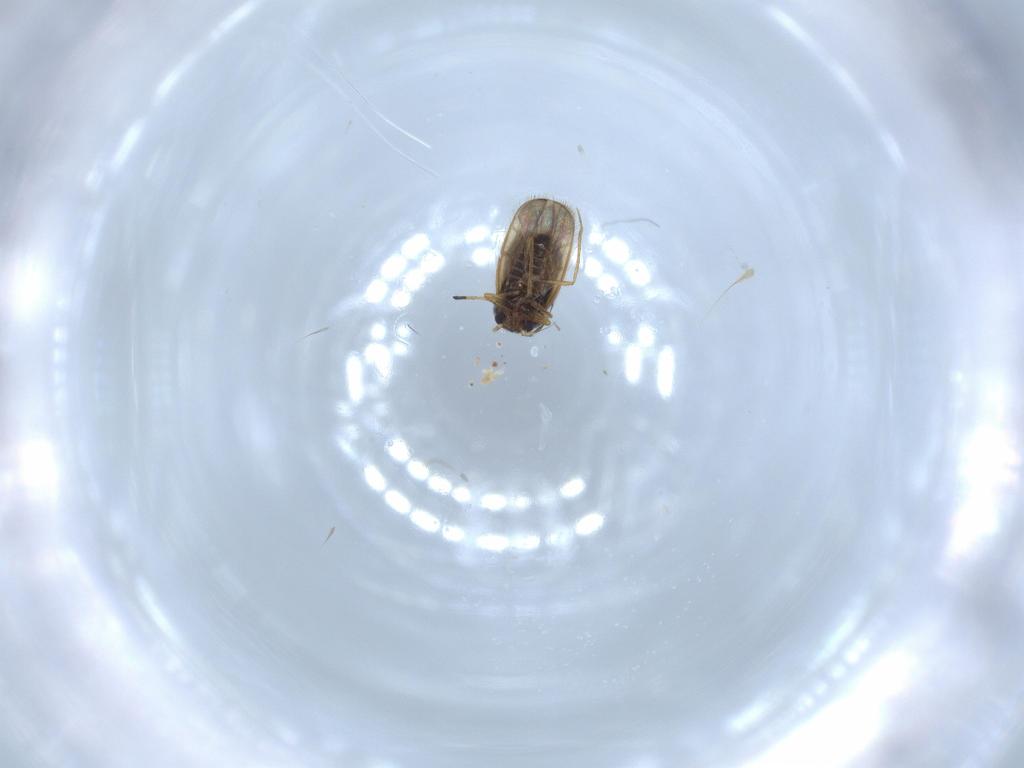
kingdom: Animalia
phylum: Arthropoda
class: Insecta
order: Hemiptera
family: Schizopteridae
